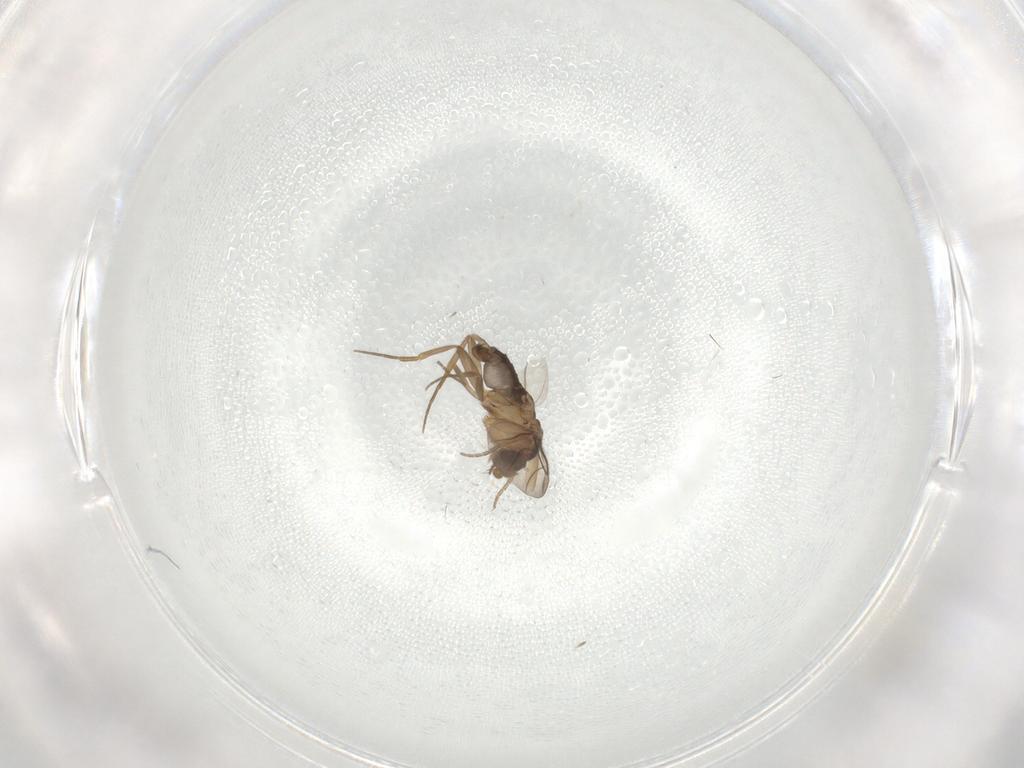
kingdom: Animalia
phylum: Arthropoda
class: Insecta
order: Diptera
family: Phoridae
